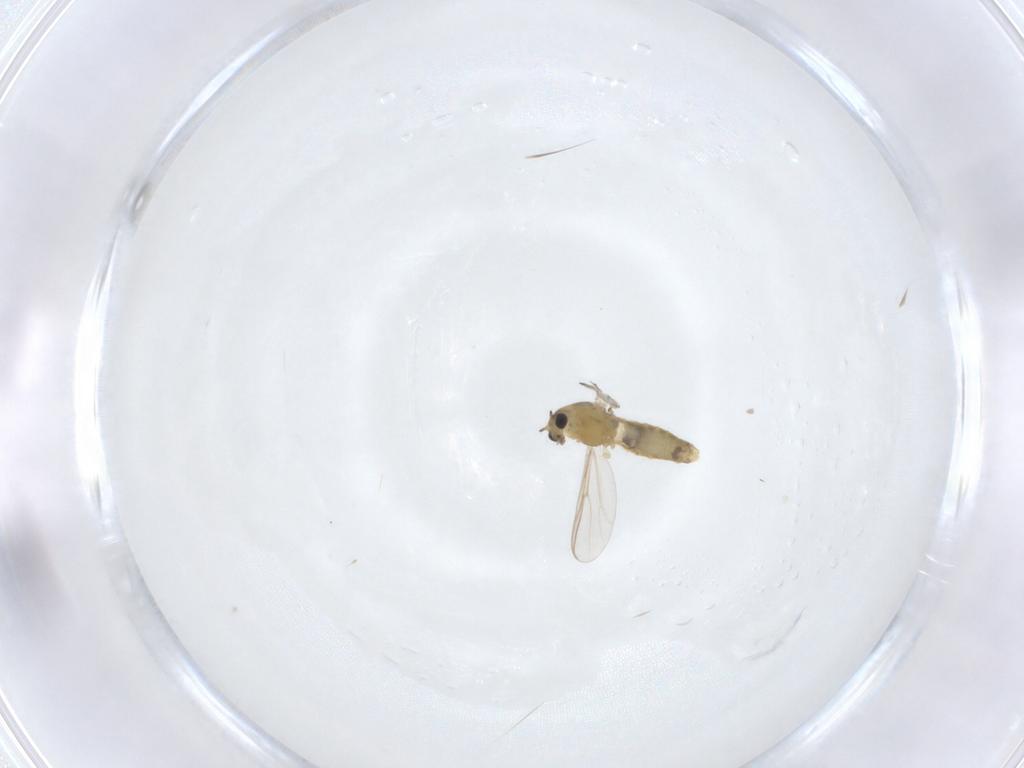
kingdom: Animalia
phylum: Arthropoda
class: Insecta
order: Diptera
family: Chironomidae
